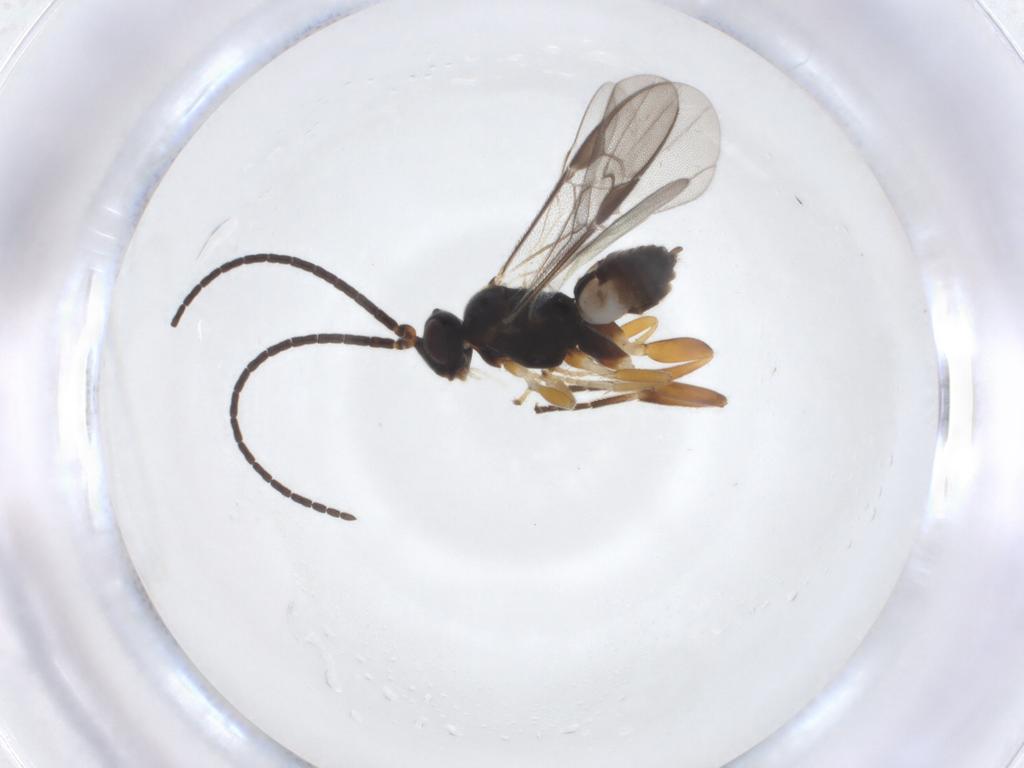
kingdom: Animalia
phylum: Arthropoda
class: Insecta
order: Hymenoptera
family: Braconidae
